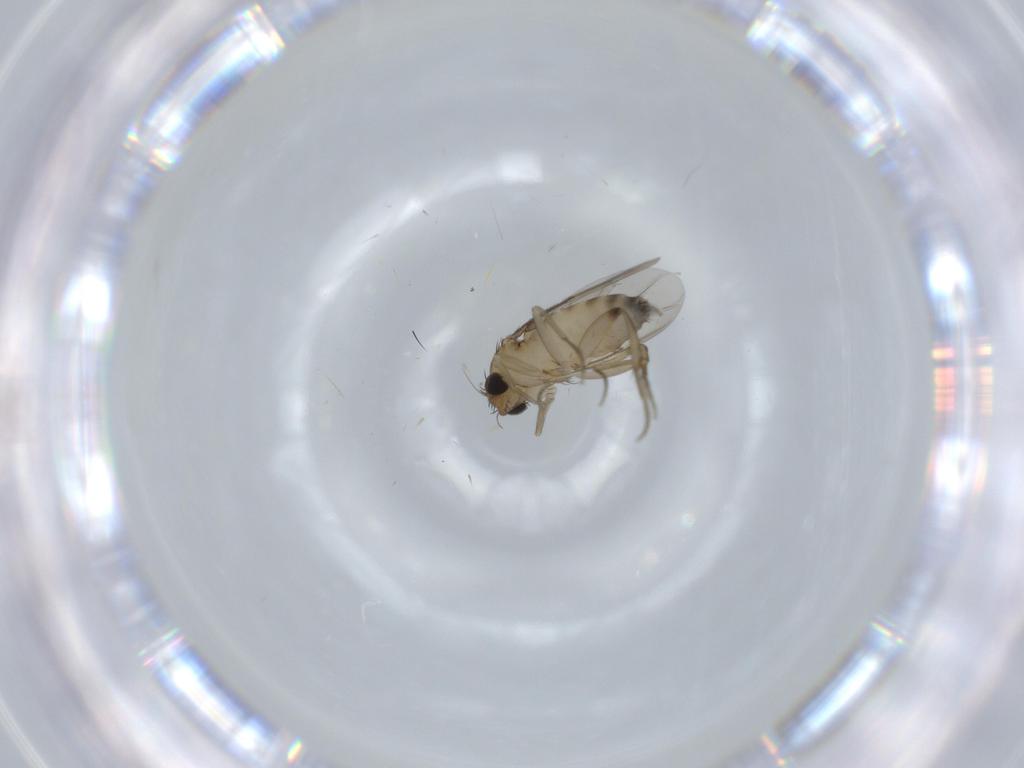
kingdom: Animalia
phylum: Arthropoda
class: Insecta
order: Diptera
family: Phoridae
